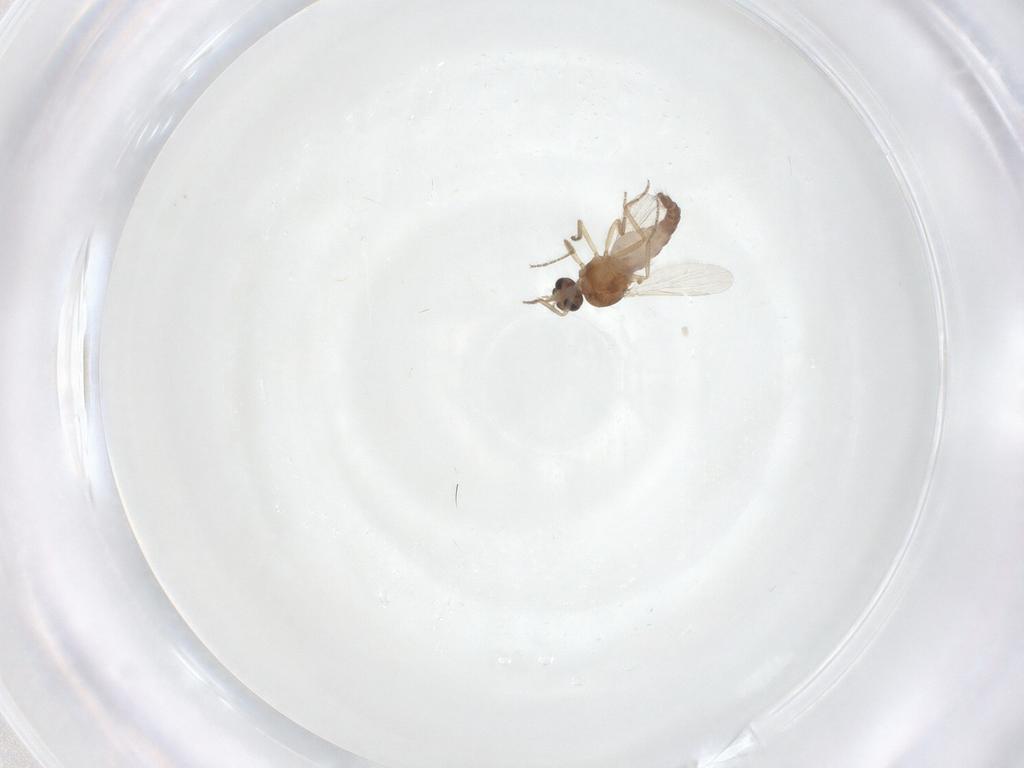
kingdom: Animalia
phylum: Arthropoda
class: Insecta
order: Diptera
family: Ceratopogonidae
